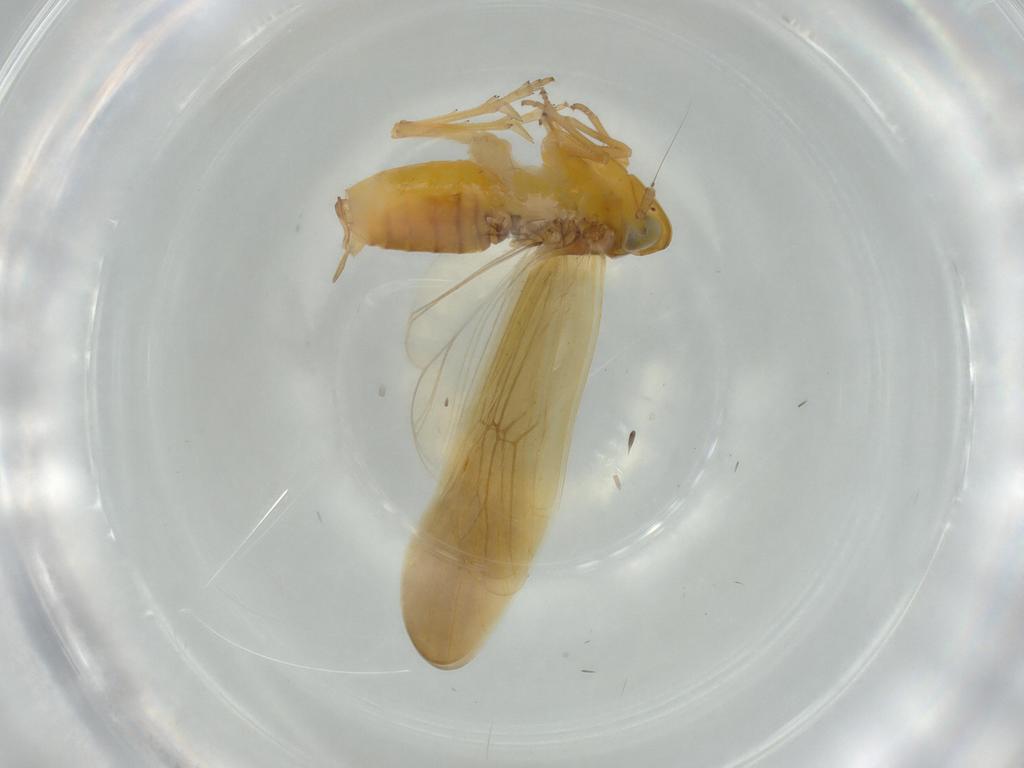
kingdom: Animalia
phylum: Arthropoda
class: Insecta
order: Hemiptera
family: Delphacidae
